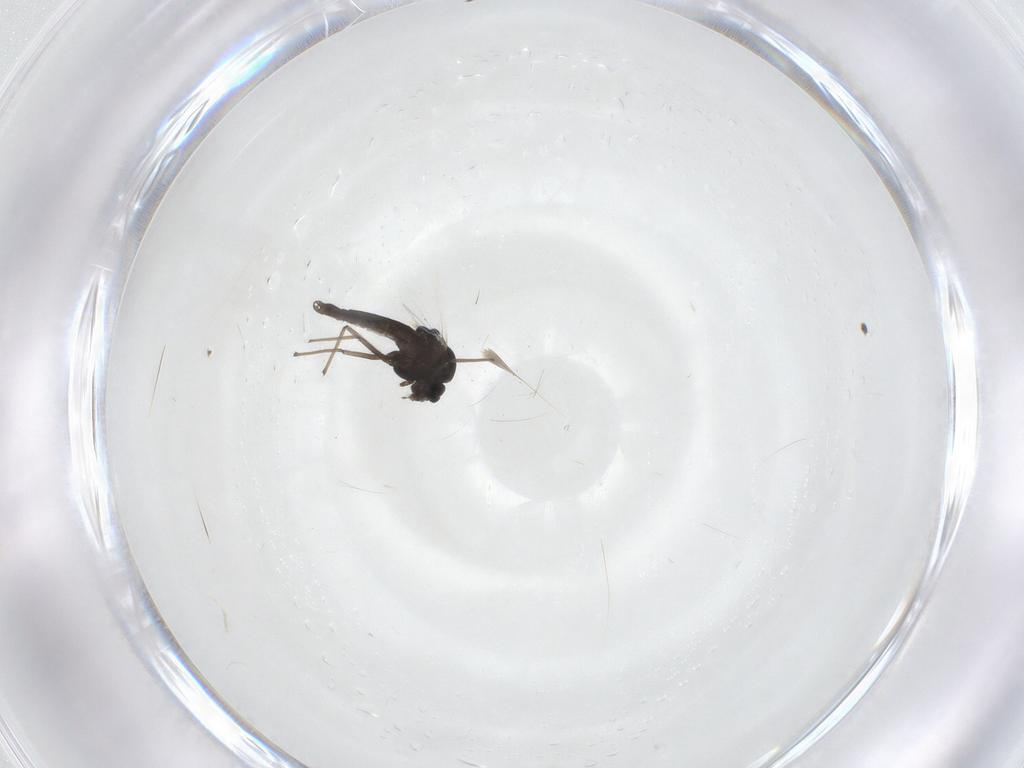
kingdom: Animalia
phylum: Arthropoda
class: Insecta
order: Diptera
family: Chironomidae
